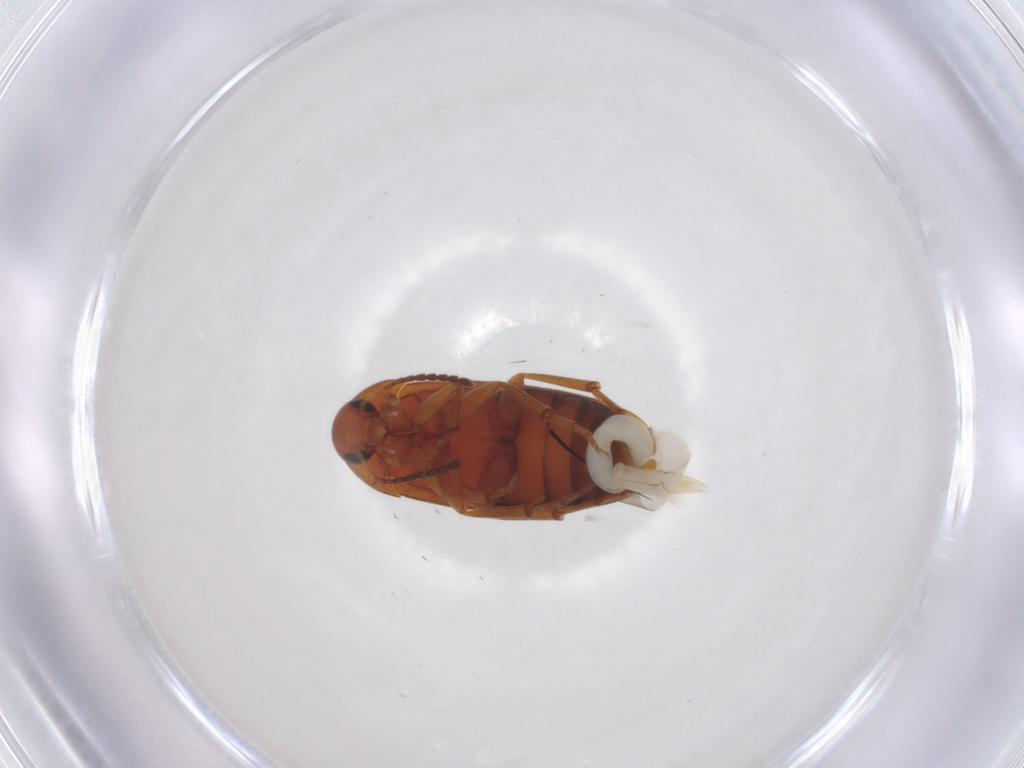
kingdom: Animalia
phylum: Arthropoda
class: Insecta
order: Coleoptera
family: Scraptiidae
